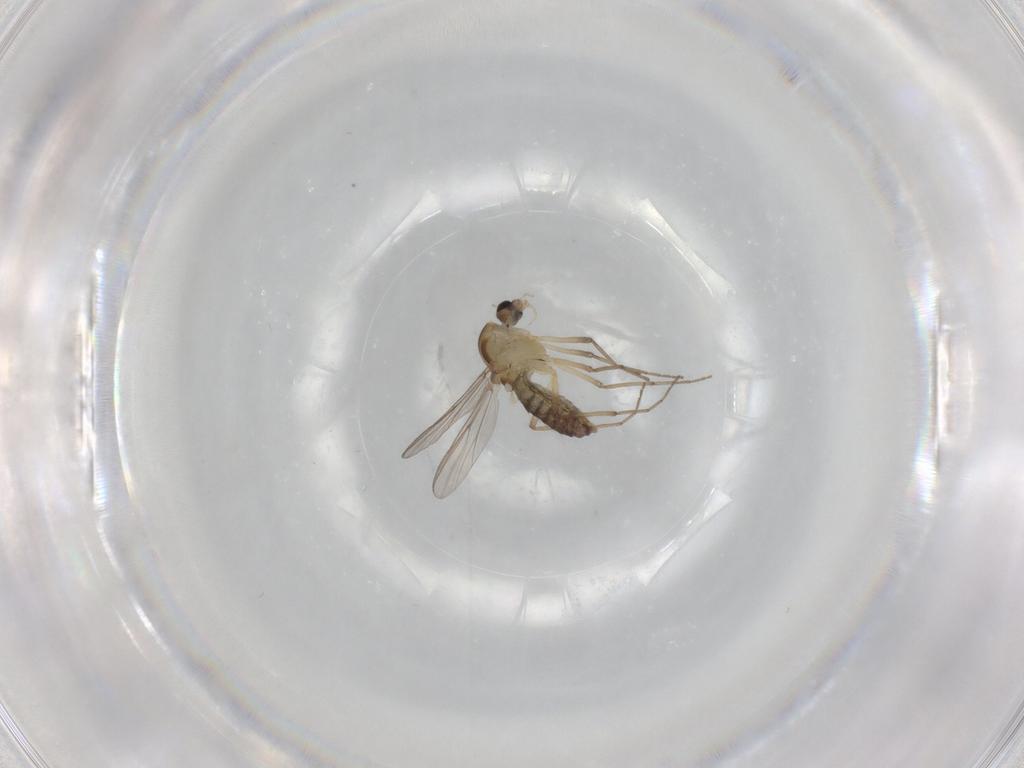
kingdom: Animalia
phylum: Arthropoda
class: Insecta
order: Diptera
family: Chironomidae
